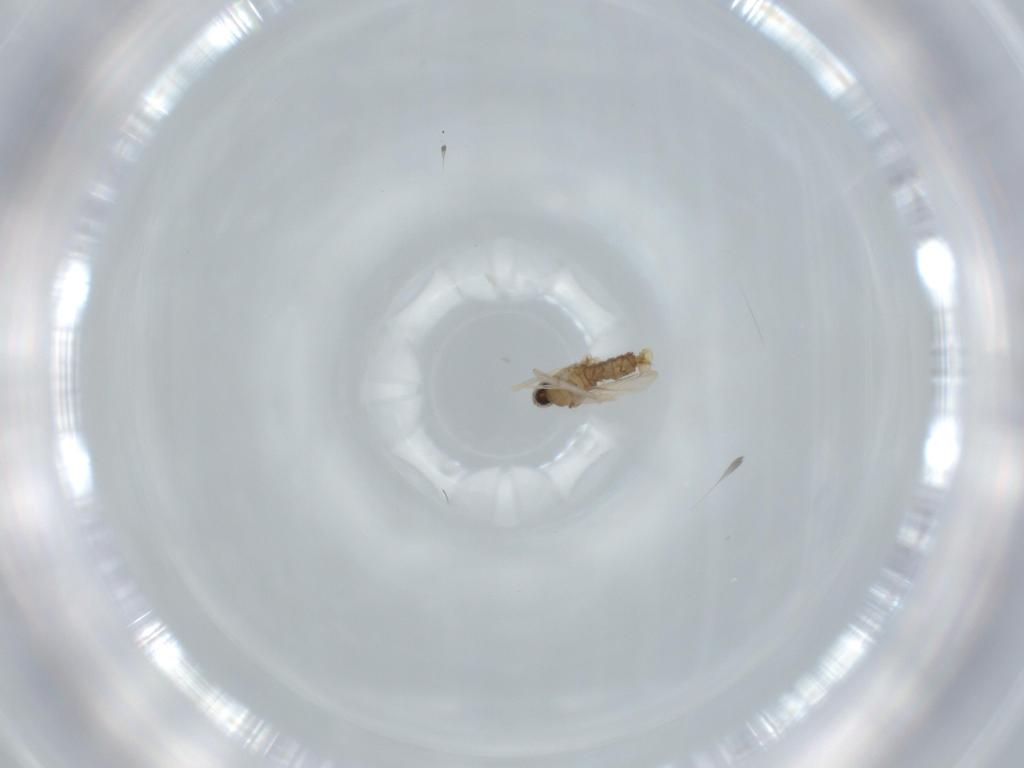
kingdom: Animalia
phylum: Arthropoda
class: Insecta
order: Diptera
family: Cecidomyiidae
